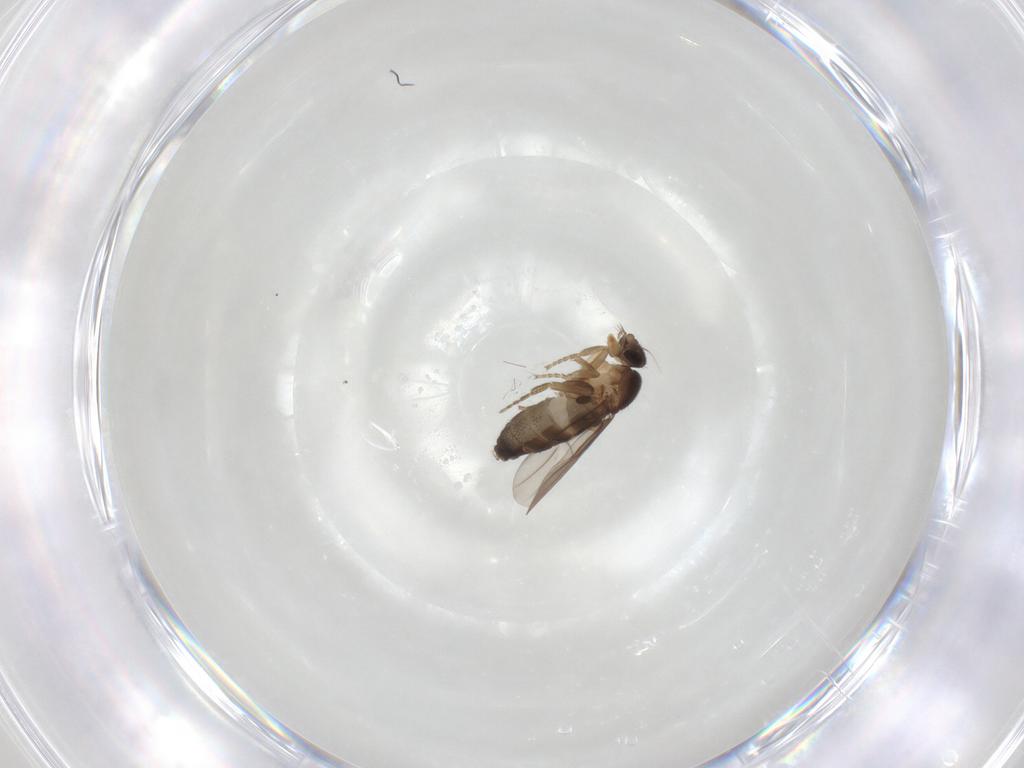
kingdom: Animalia
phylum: Arthropoda
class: Insecta
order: Diptera
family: Phoridae
